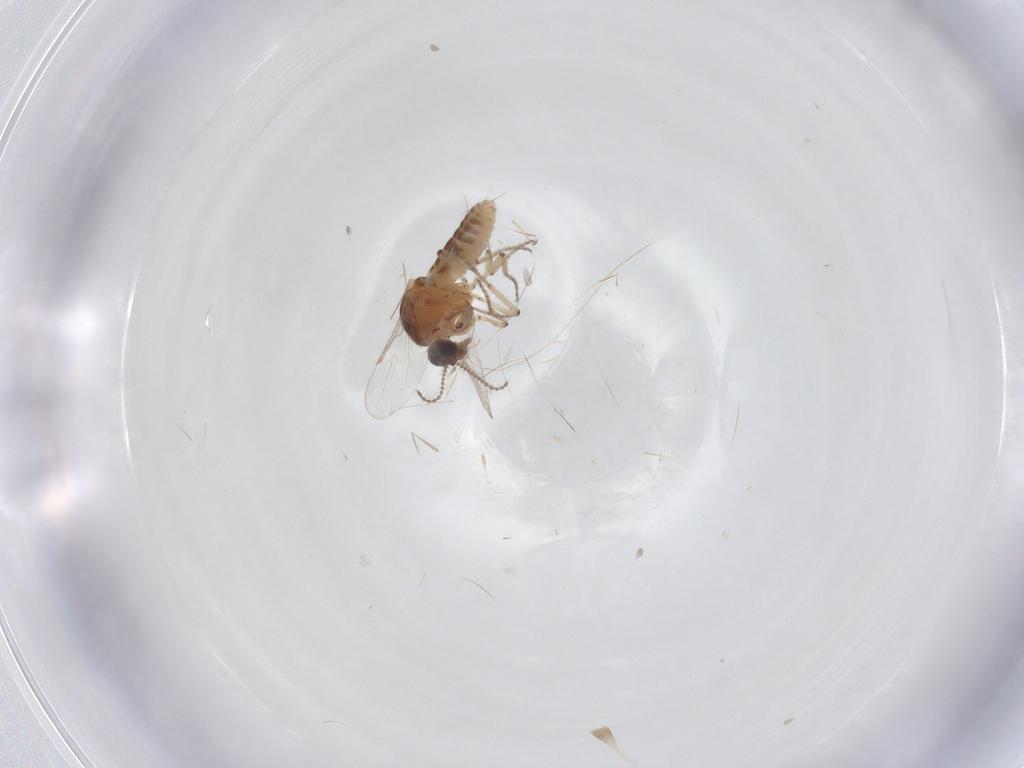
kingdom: Animalia
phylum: Arthropoda
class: Insecta
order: Diptera
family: Ceratopogonidae
